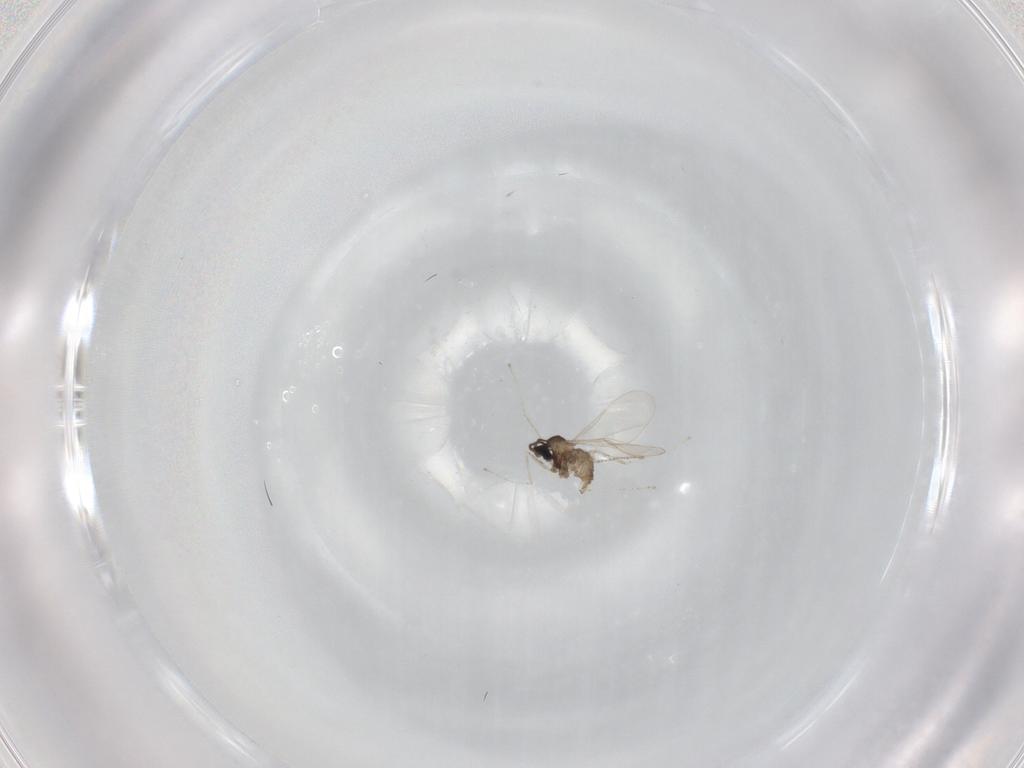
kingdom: Animalia
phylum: Arthropoda
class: Insecta
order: Diptera
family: Cecidomyiidae
